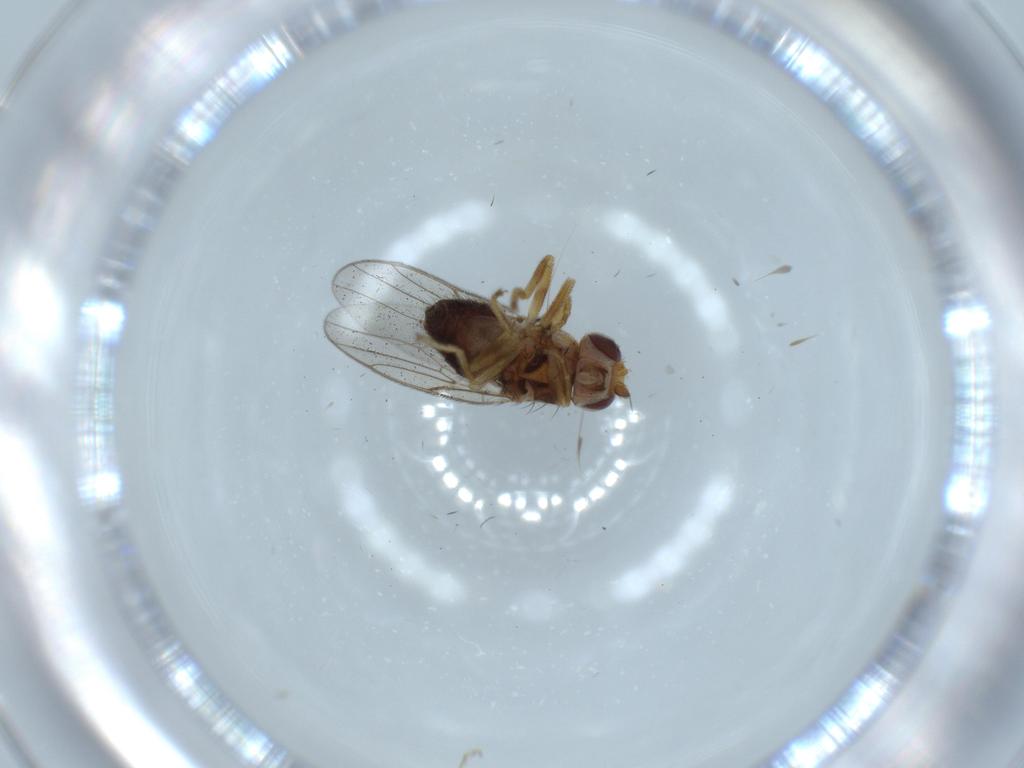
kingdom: Animalia
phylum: Arthropoda
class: Insecta
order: Diptera
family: Chloropidae
